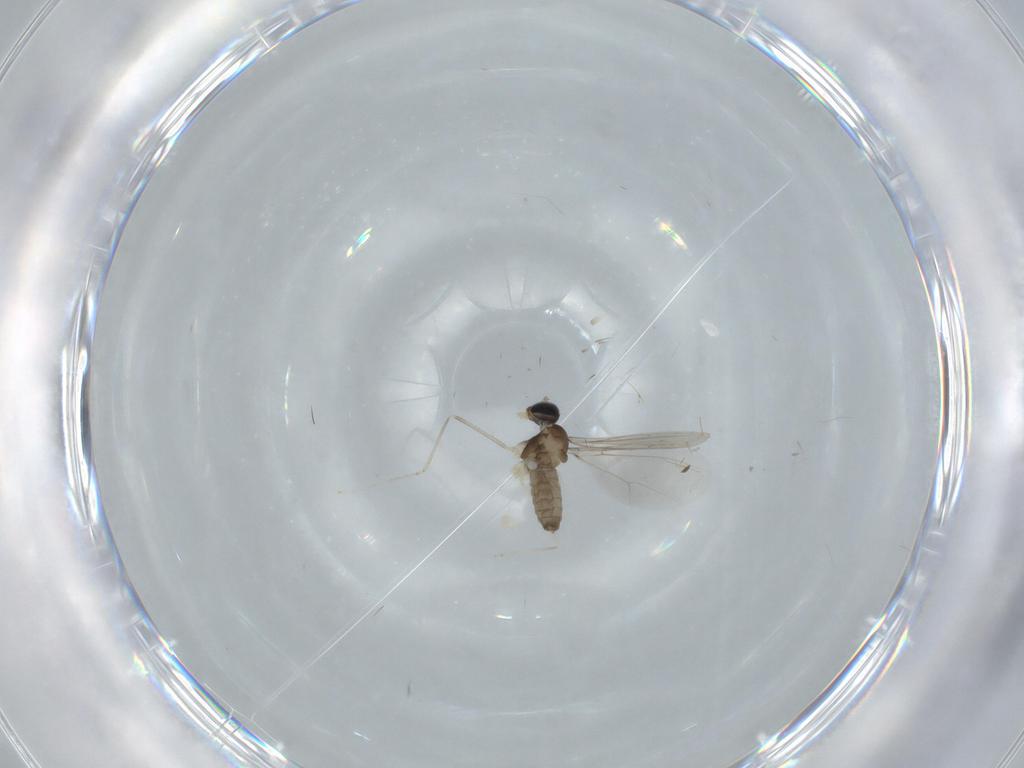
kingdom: Animalia
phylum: Arthropoda
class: Insecta
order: Diptera
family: Cecidomyiidae
